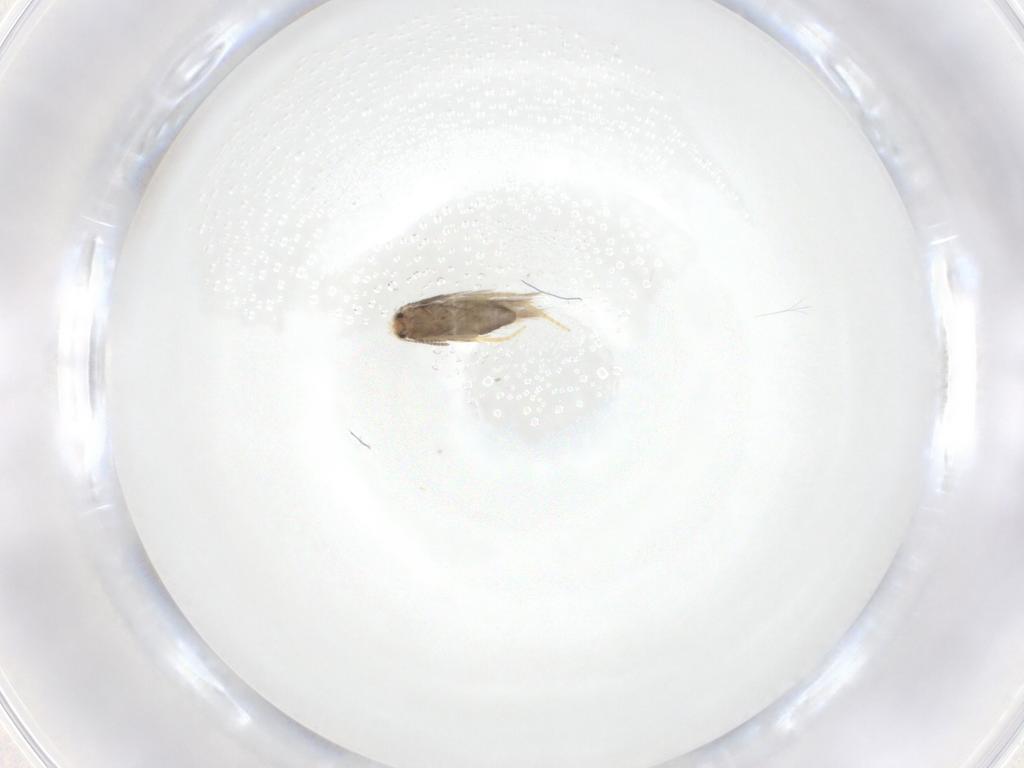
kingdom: Animalia
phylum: Arthropoda
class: Insecta
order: Lepidoptera
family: Nepticulidae
